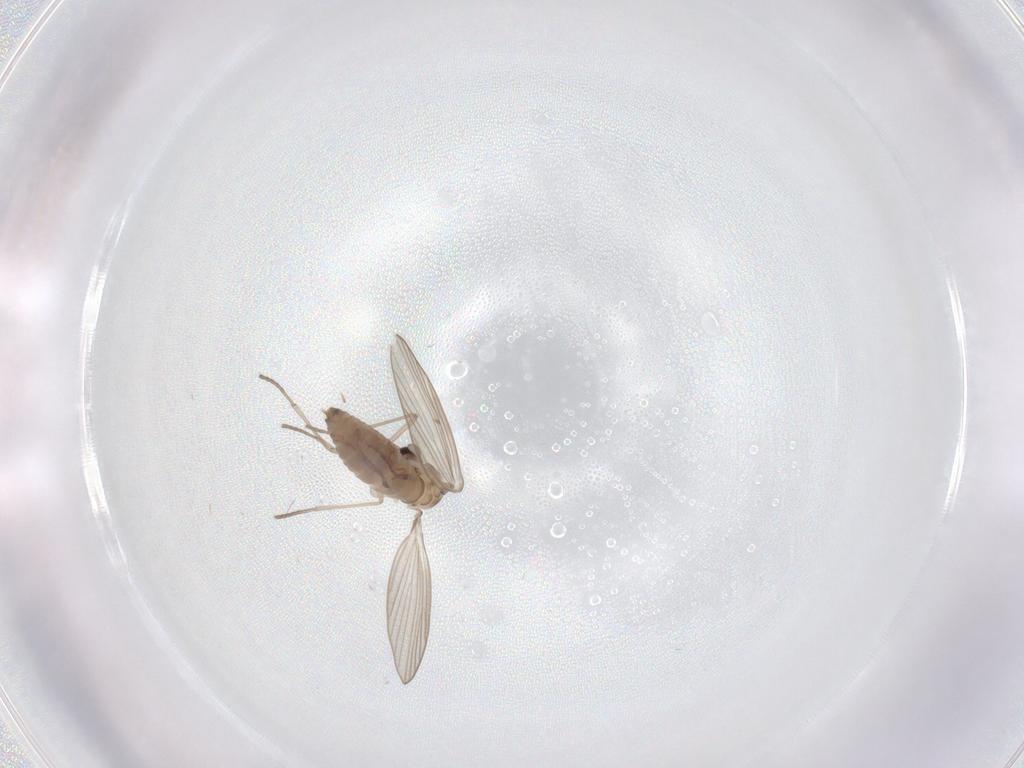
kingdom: Animalia
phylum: Arthropoda
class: Insecta
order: Diptera
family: Psychodidae
